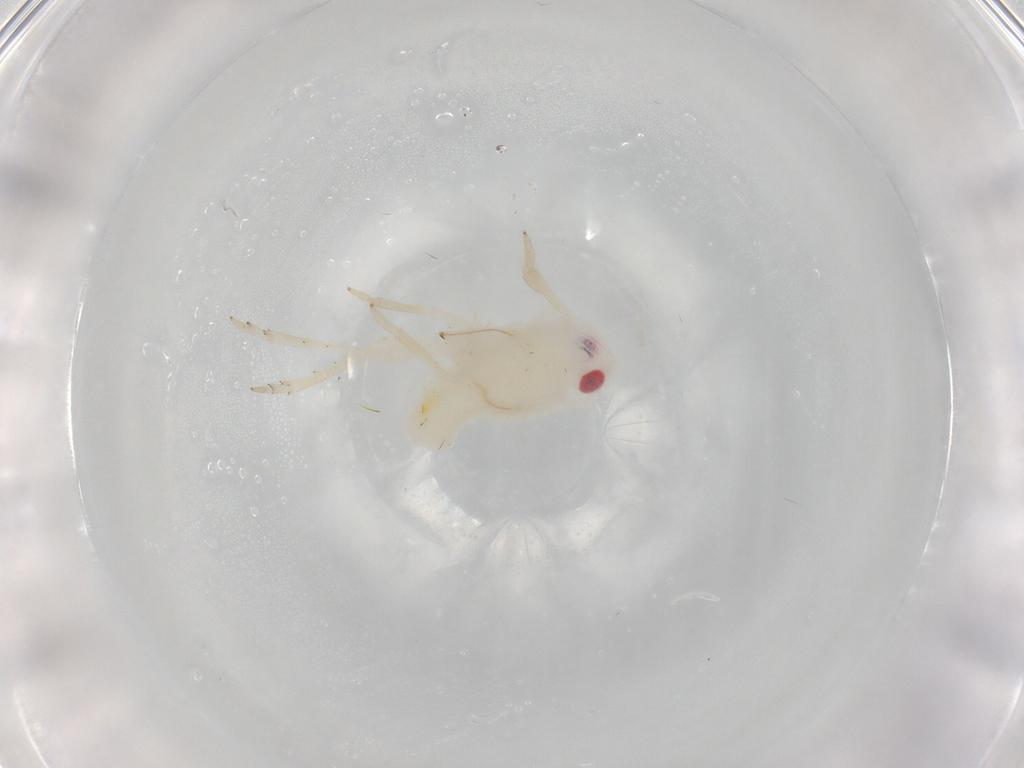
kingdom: Animalia
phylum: Arthropoda
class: Insecta
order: Hemiptera
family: Tropiduchidae
